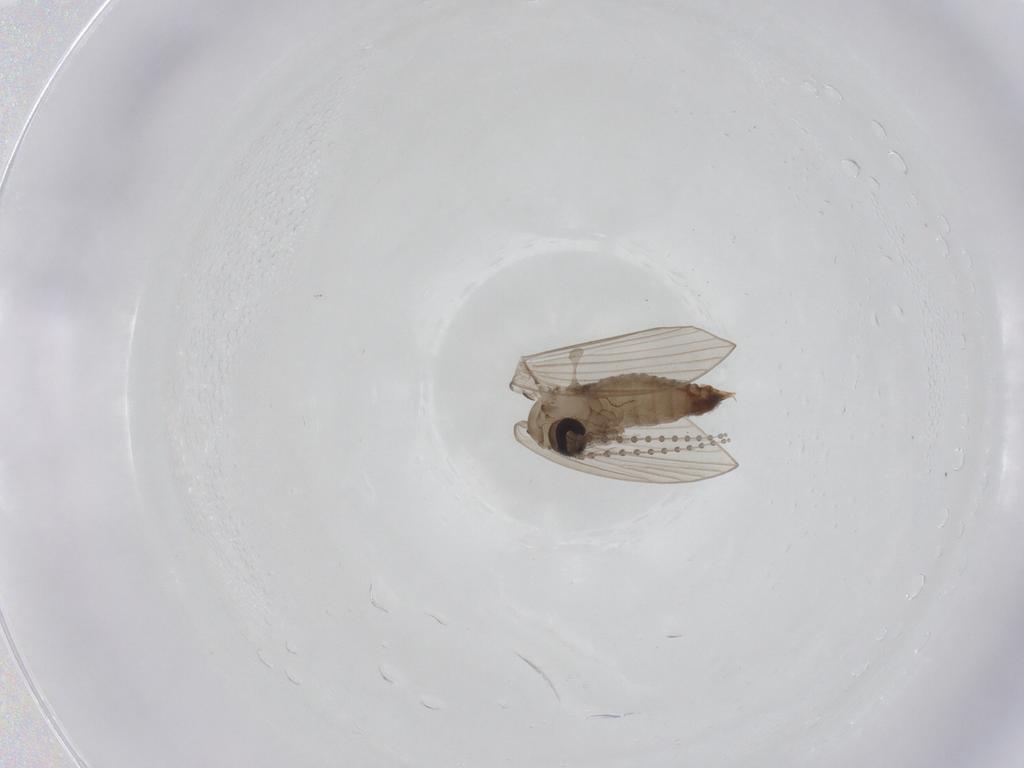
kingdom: Animalia
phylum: Arthropoda
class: Insecta
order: Diptera
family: Psychodidae
